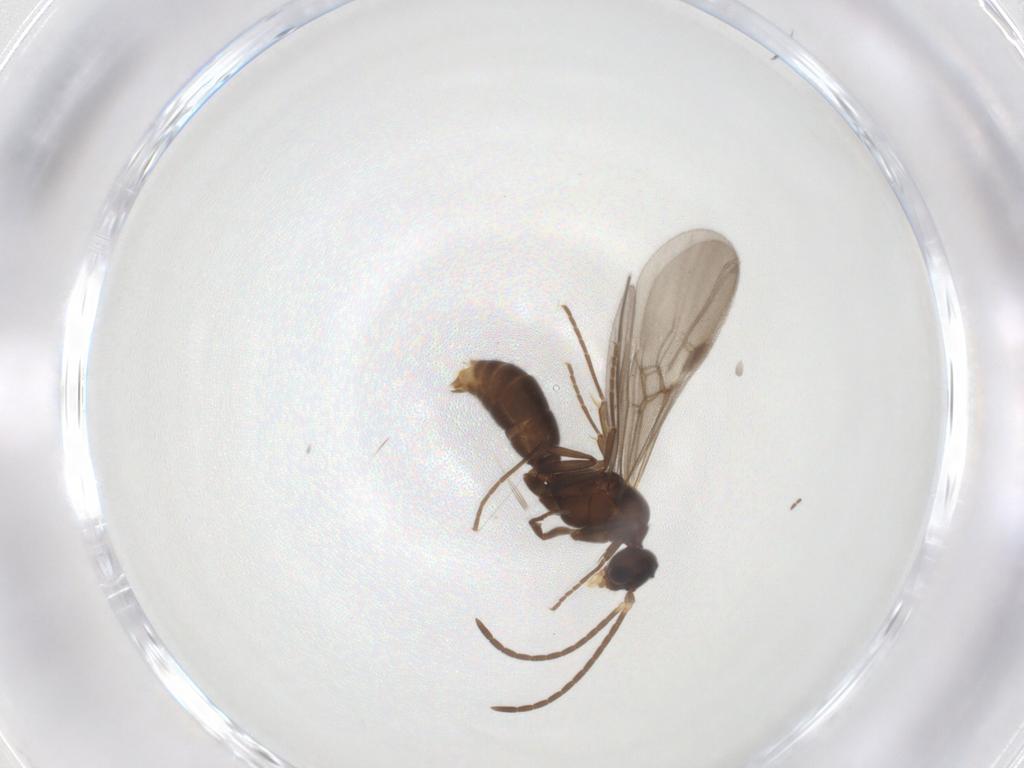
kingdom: Animalia
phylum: Arthropoda
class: Insecta
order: Hymenoptera
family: Formicidae
